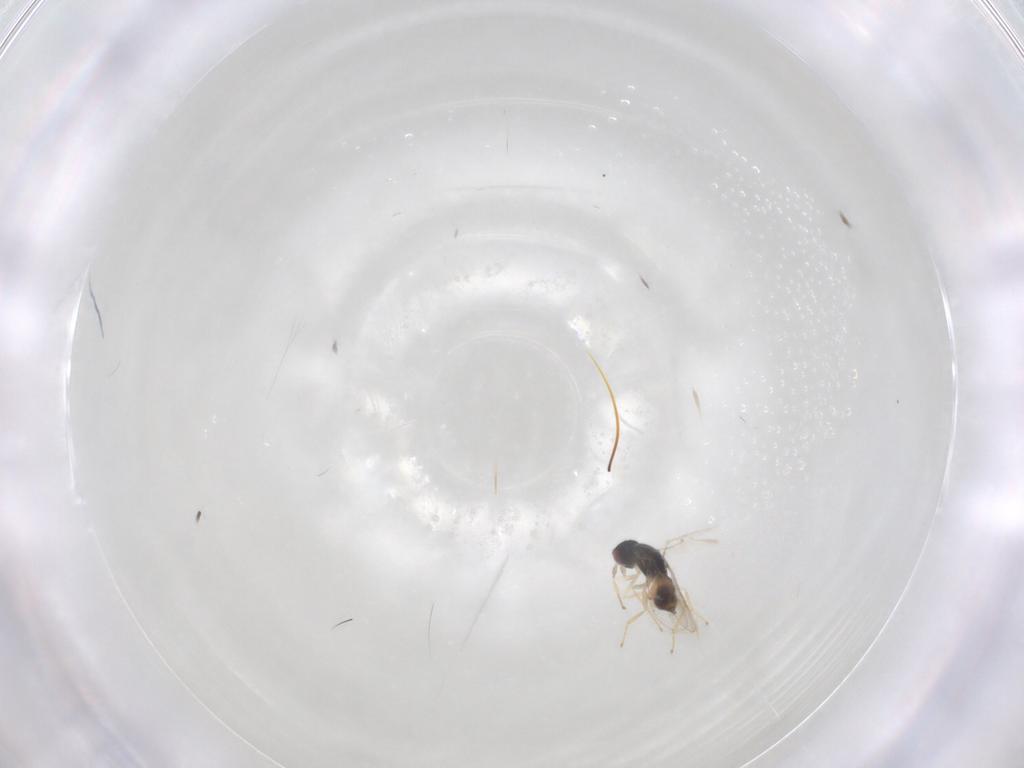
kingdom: Animalia
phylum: Arthropoda
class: Insecta
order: Hymenoptera
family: Eulophidae
